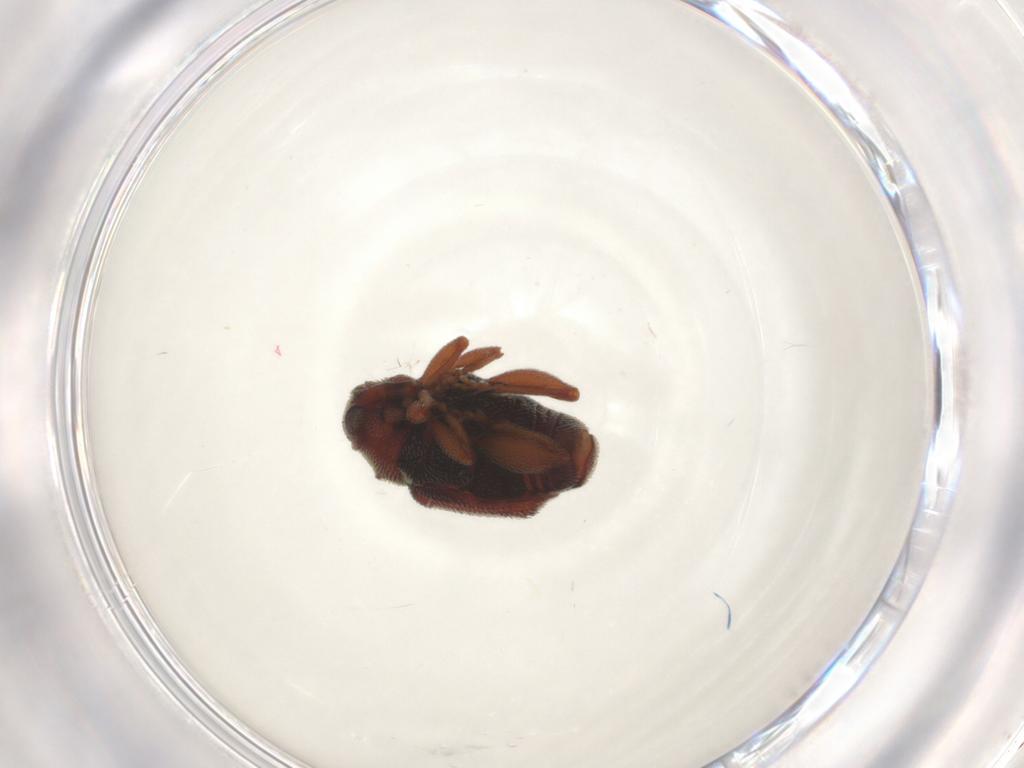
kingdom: Animalia
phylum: Arthropoda
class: Insecta
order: Coleoptera
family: Curculionidae
